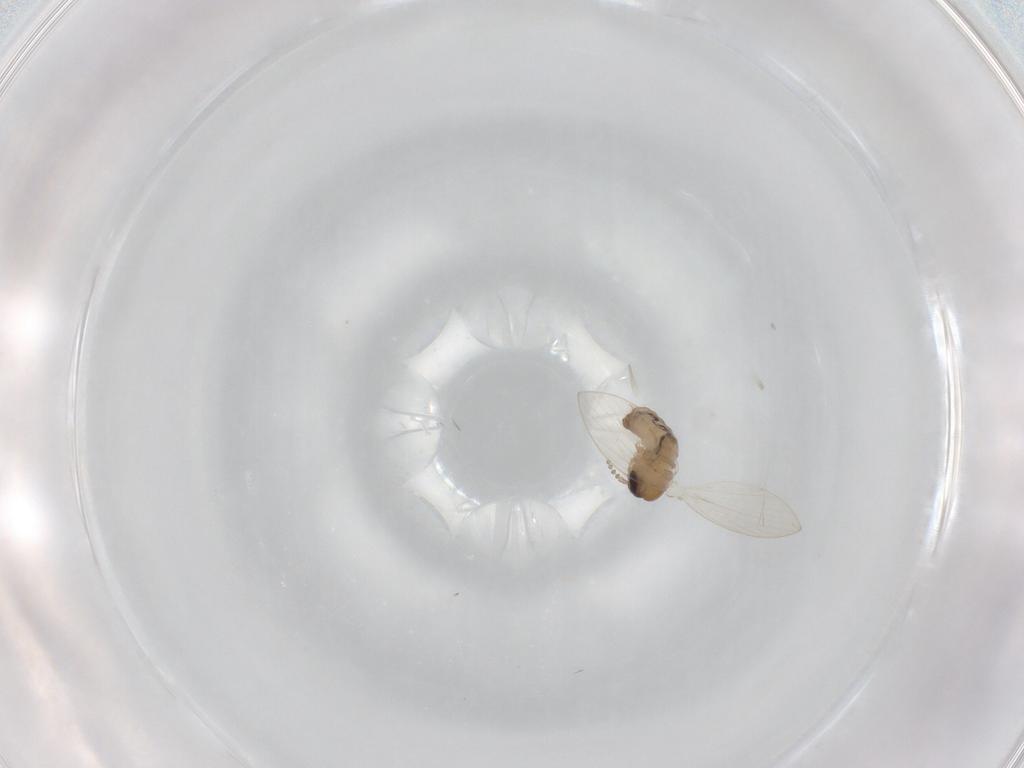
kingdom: Animalia
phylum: Arthropoda
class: Insecta
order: Diptera
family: Psychodidae
